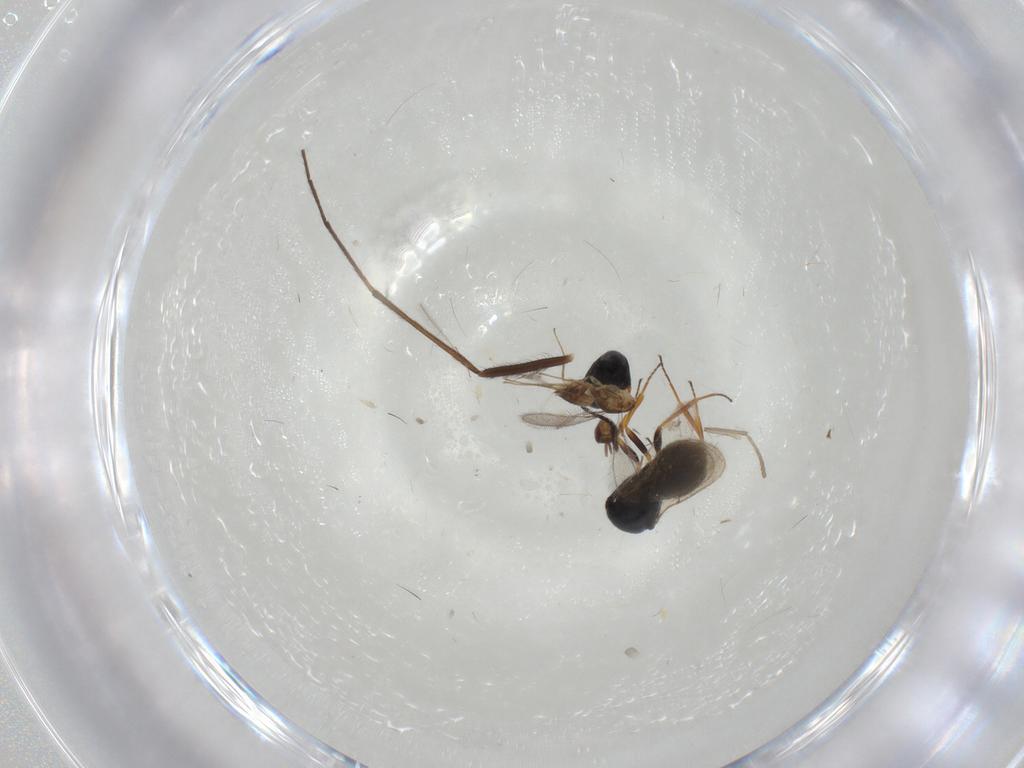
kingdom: Animalia
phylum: Arthropoda
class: Insecta
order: Hymenoptera
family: Scelionidae
